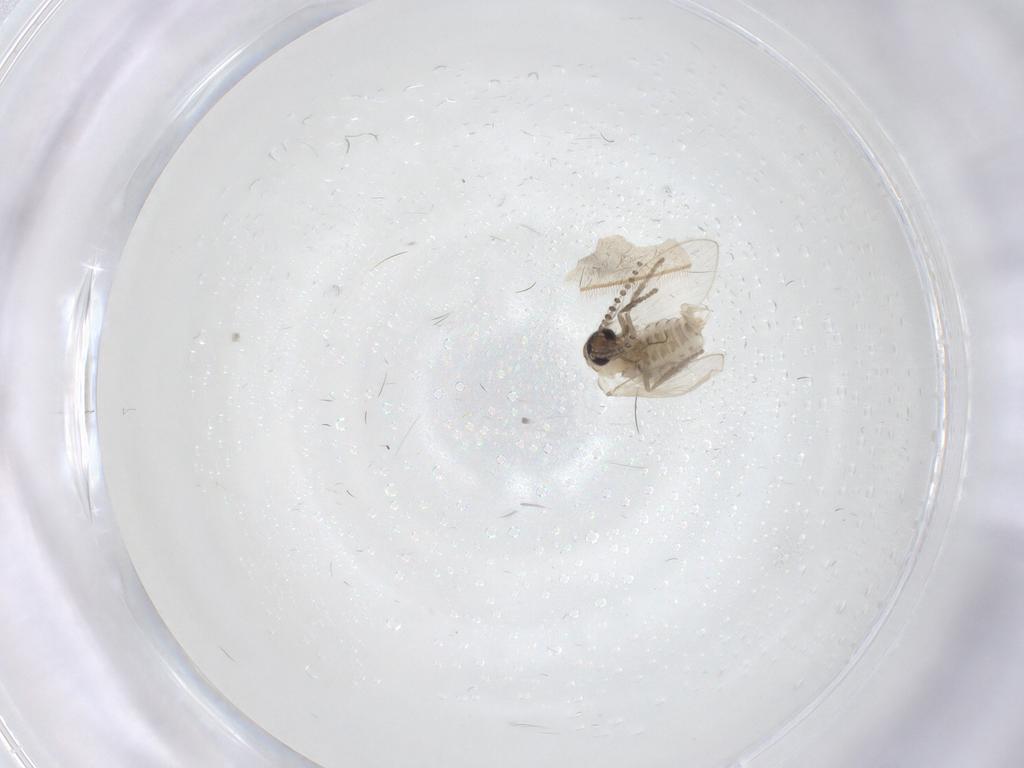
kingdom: Animalia
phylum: Arthropoda
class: Insecta
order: Diptera
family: Psychodidae
